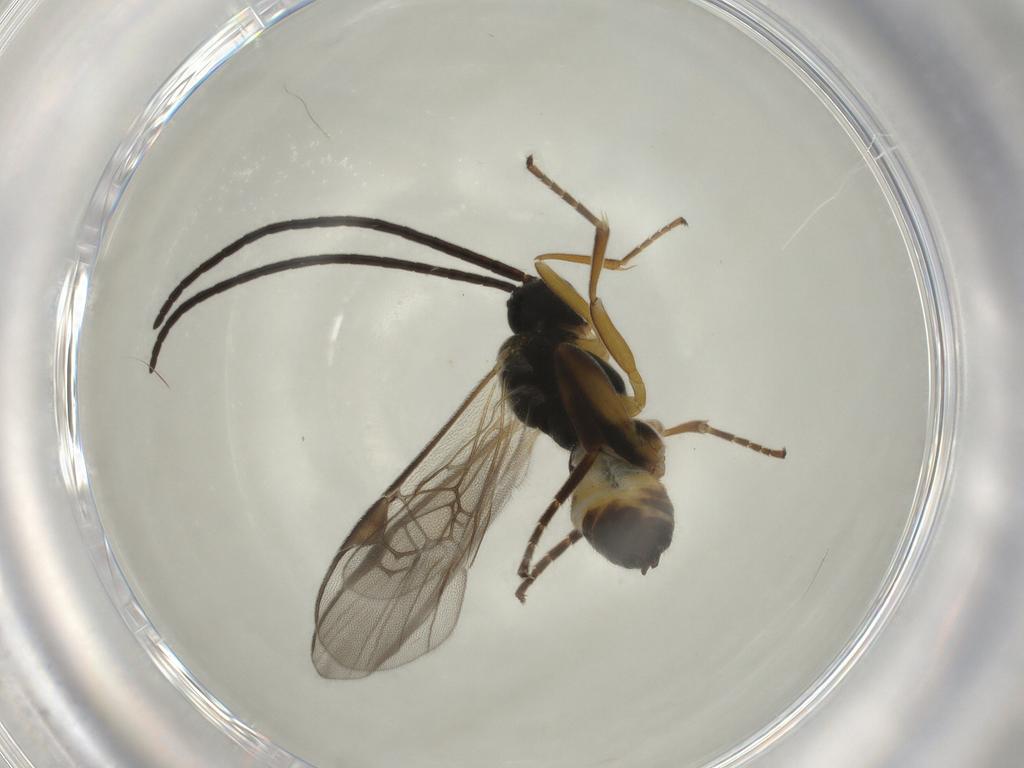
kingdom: Animalia
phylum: Arthropoda
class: Insecta
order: Hymenoptera
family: Braconidae
